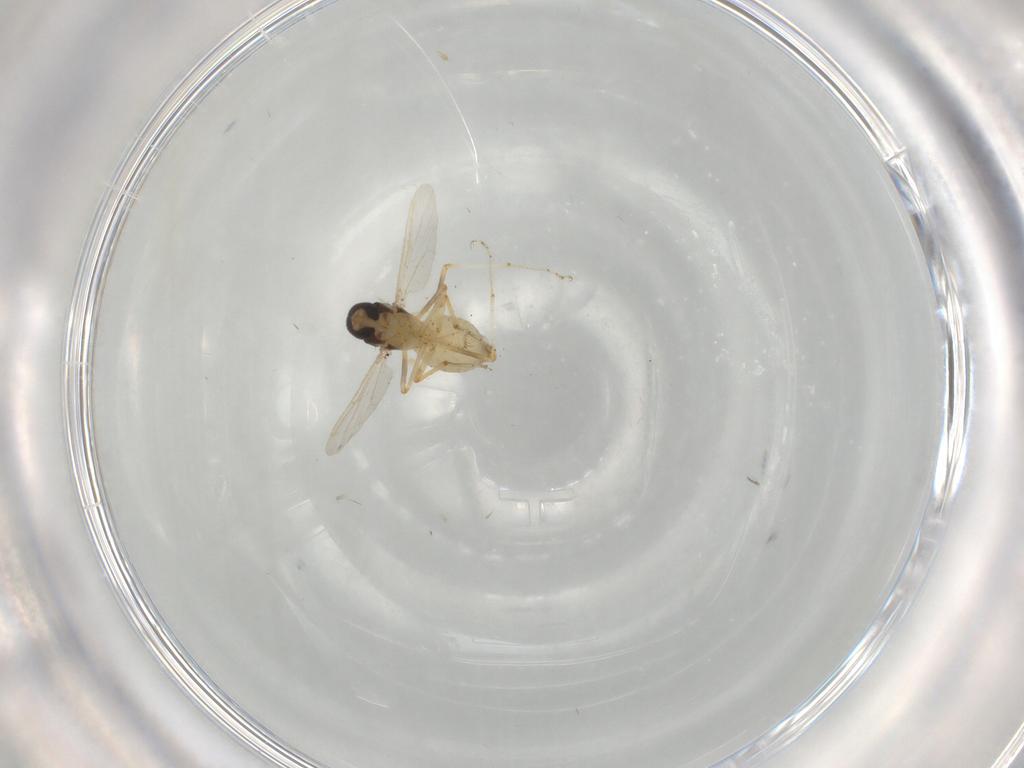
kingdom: Animalia
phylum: Arthropoda
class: Insecta
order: Diptera
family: Ceratopogonidae
